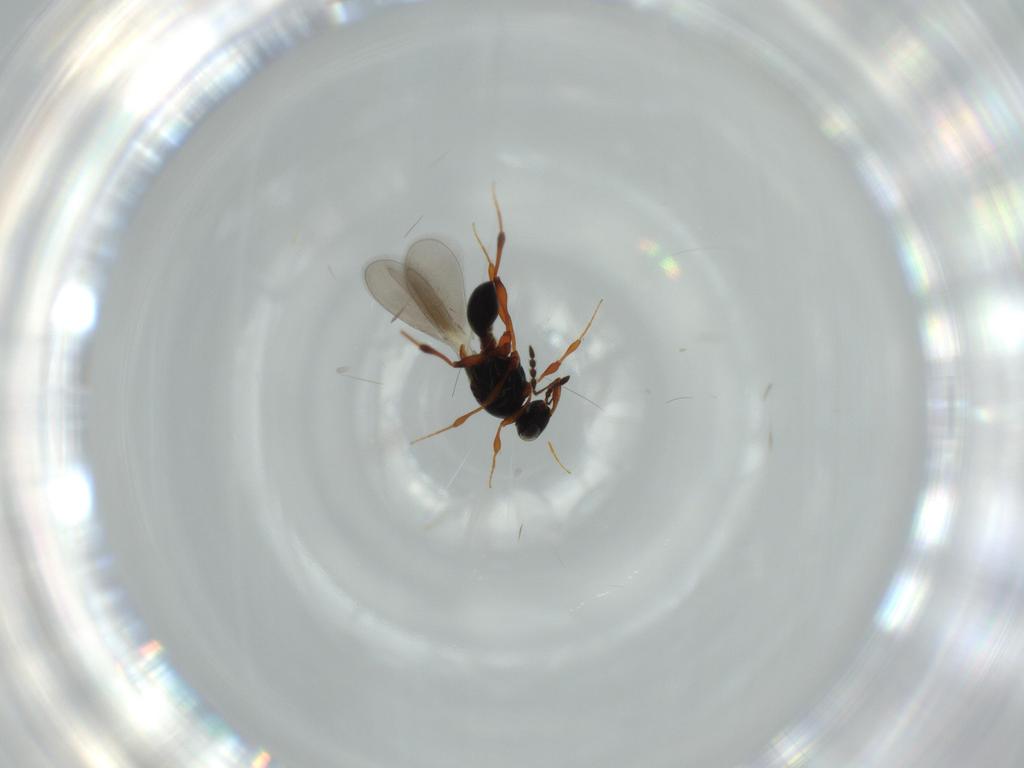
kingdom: Animalia
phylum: Arthropoda
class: Insecta
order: Hymenoptera
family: Platygastridae
